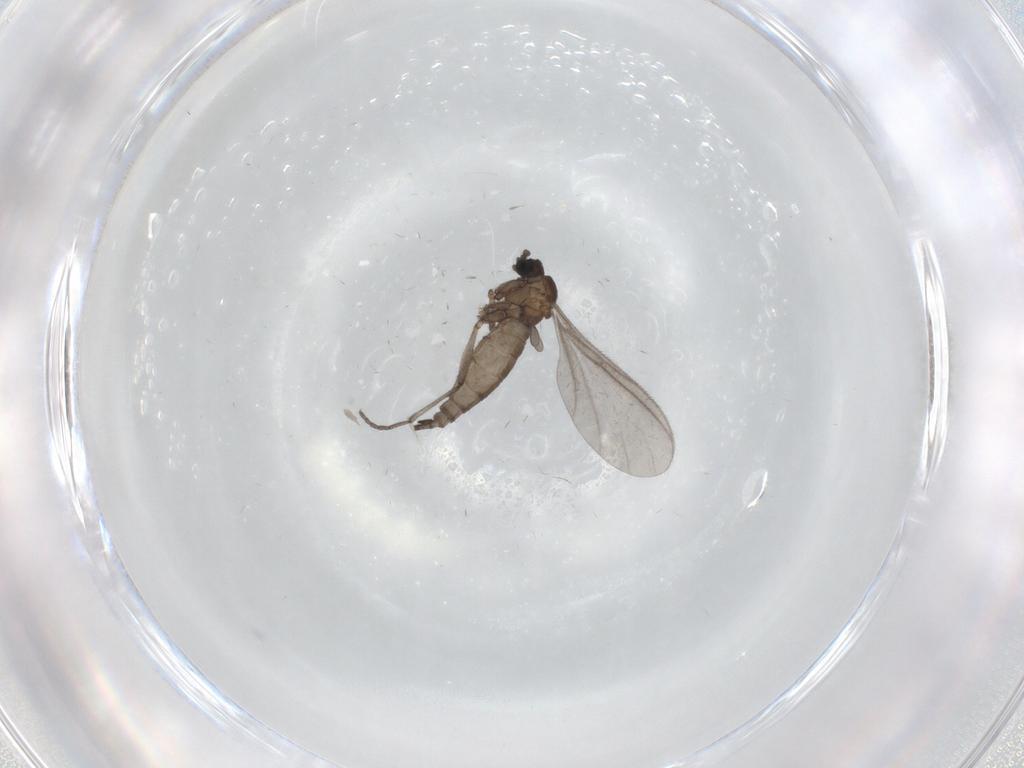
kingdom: Animalia
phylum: Arthropoda
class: Insecta
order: Diptera
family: Sciaridae
